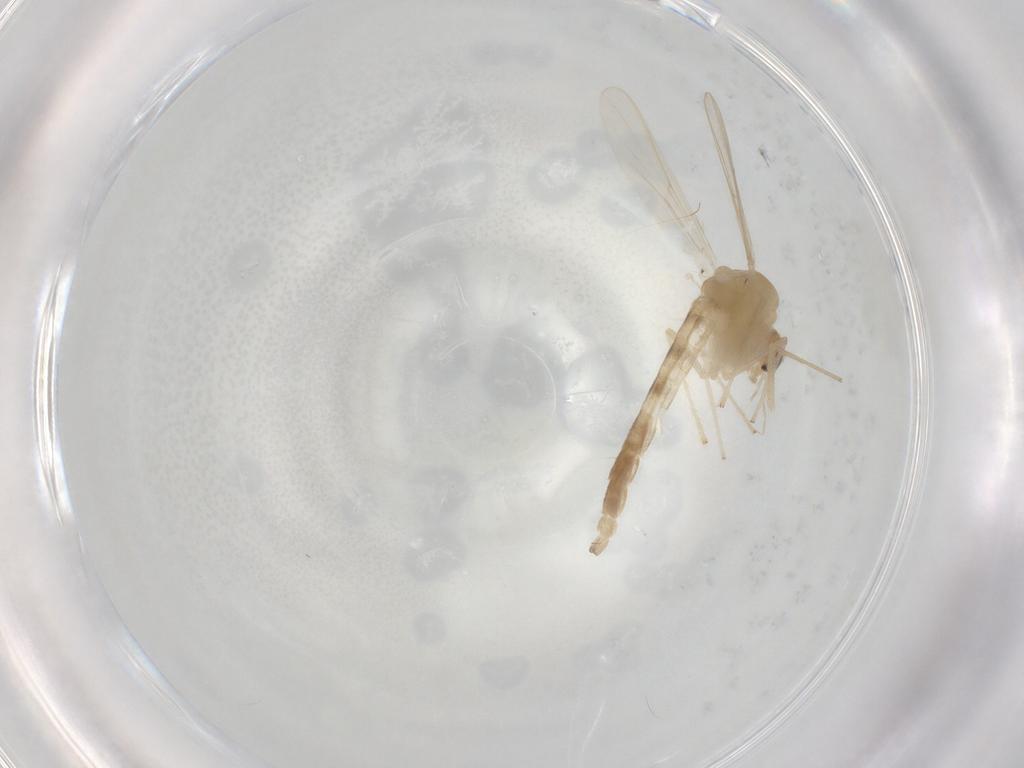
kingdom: Animalia
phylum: Arthropoda
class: Insecta
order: Diptera
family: Chironomidae
